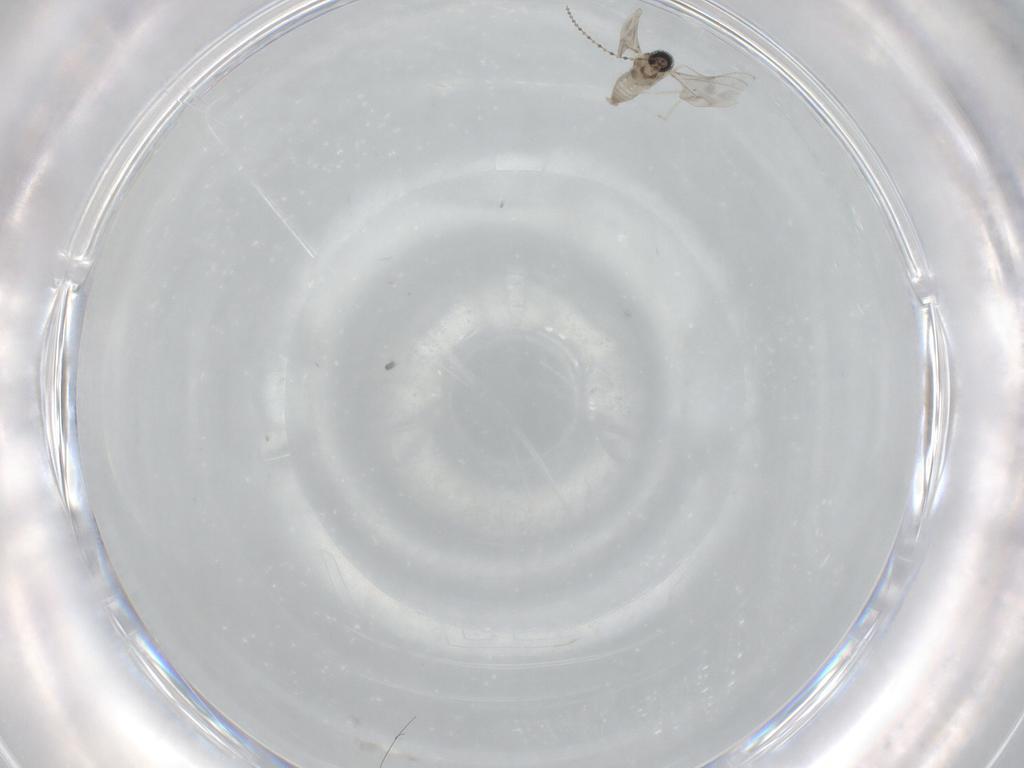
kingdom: Animalia
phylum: Arthropoda
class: Insecta
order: Diptera
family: Cecidomyiidae
